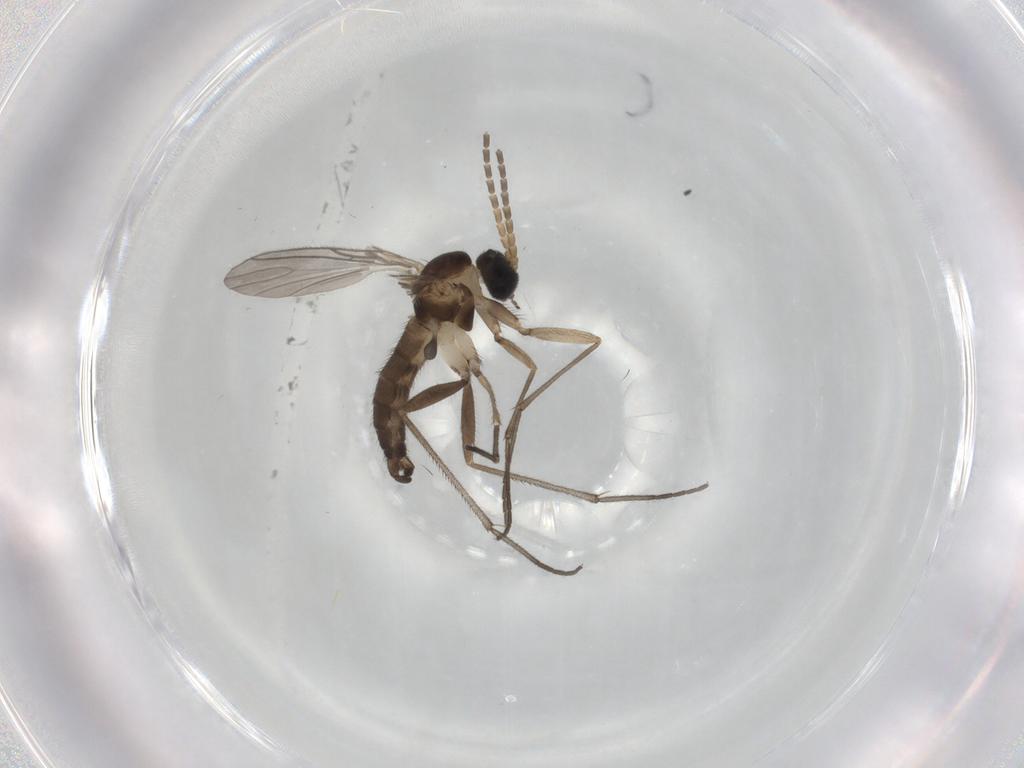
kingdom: Animalia
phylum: Arthropoda
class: Insecta
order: Diptera
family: Sciaridae
